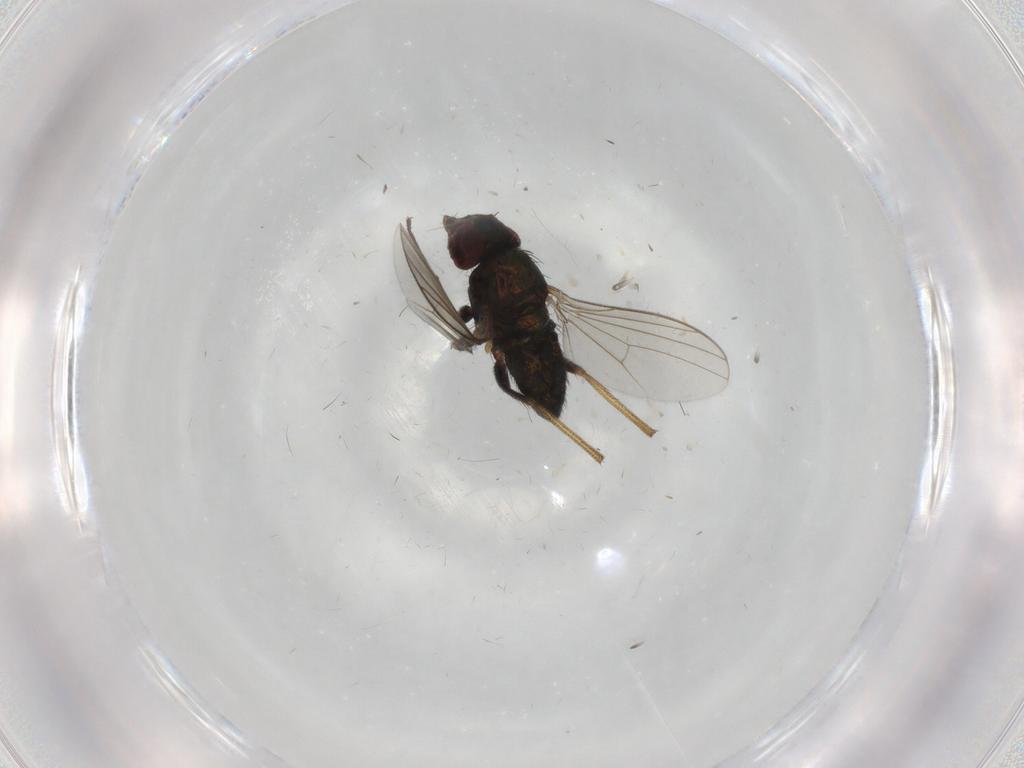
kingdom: Animalia
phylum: Arthropoda
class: Insecta
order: Diptera
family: Dolichopodidae
